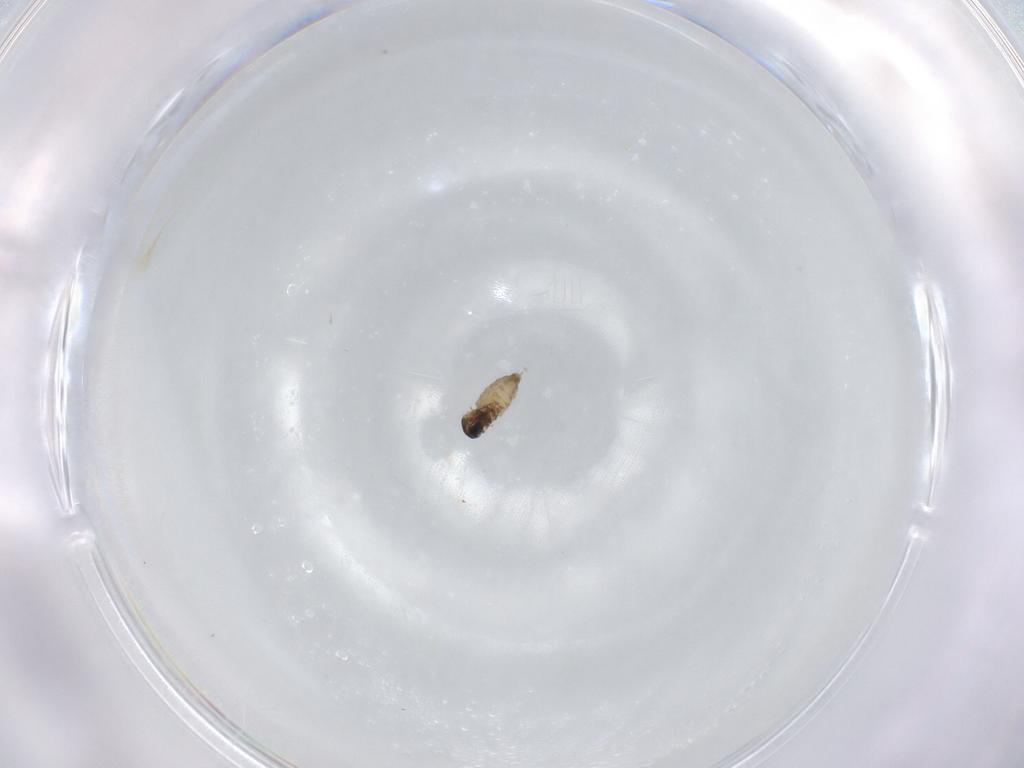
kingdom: Animalia
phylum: Arthropoda
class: Insecta
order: Diptera
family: Cecidomyiidae
